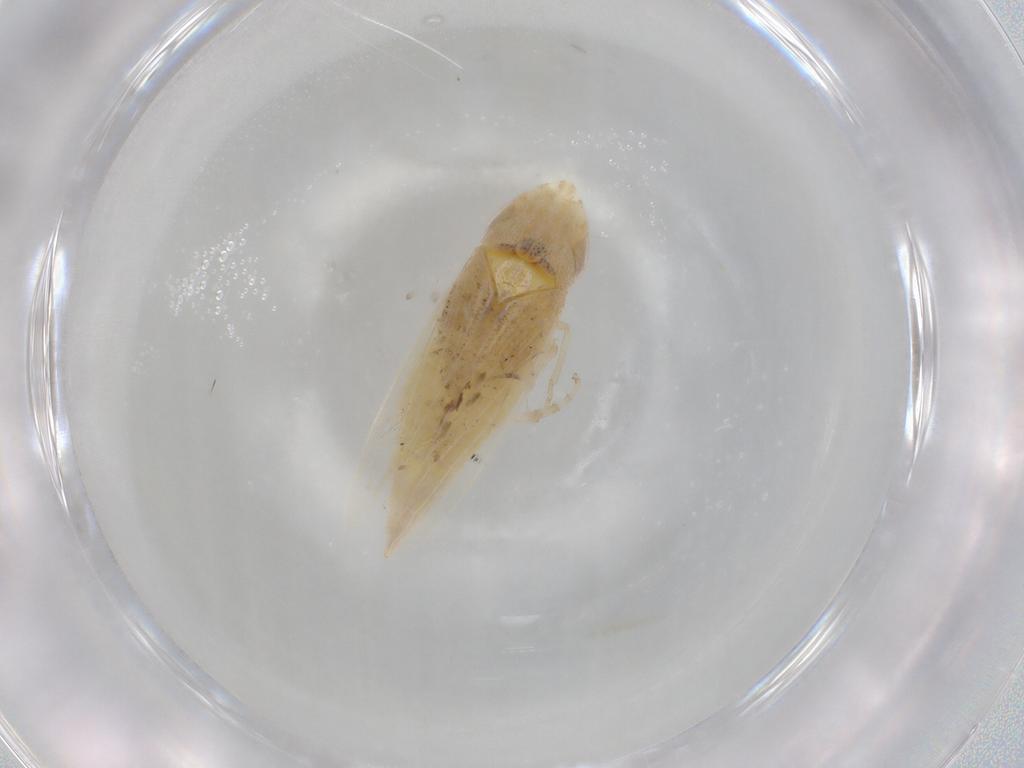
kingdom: Animalia
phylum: Arthropoda
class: Insecta
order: Hemiptera
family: Cicadellidae
